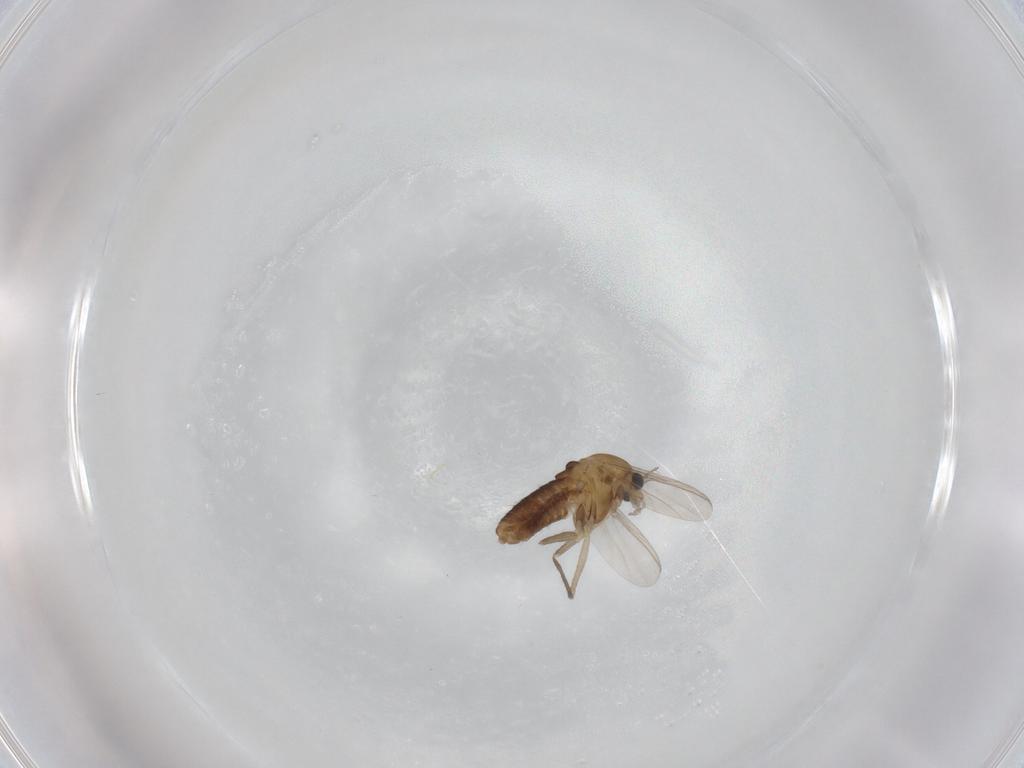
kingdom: Animalia
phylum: Arthropoda
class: Insecta
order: Diptera
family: Chironomidae
